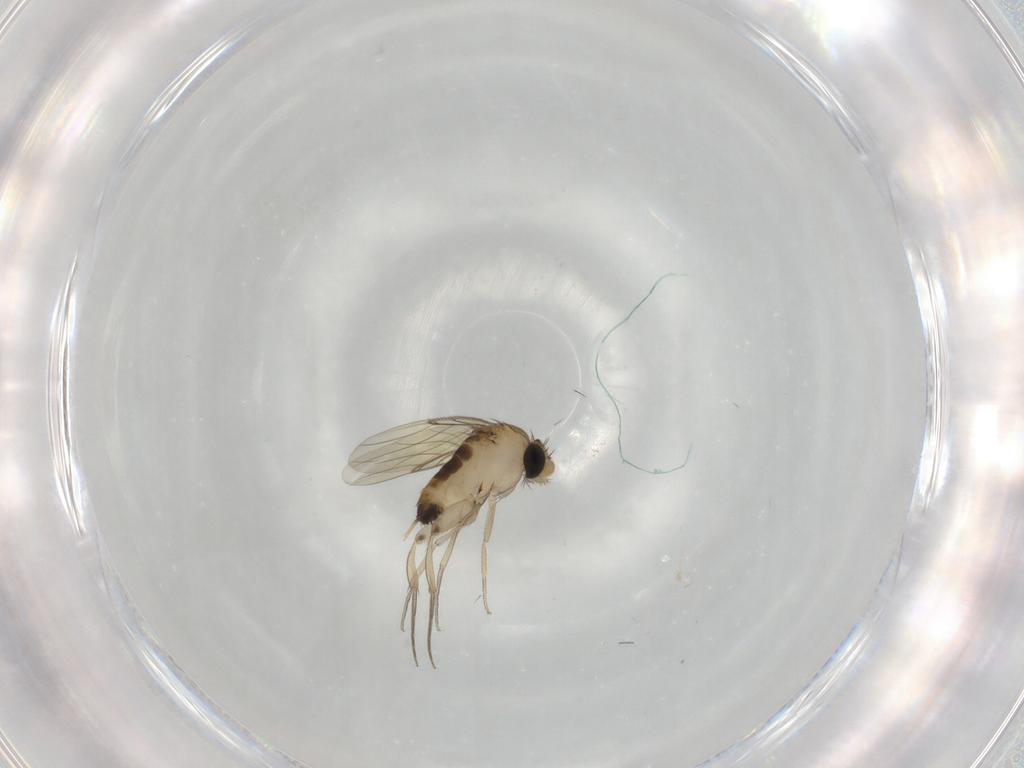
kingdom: Animalia
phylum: Arthropoda
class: Insecta
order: Diptera
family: Phoridae
